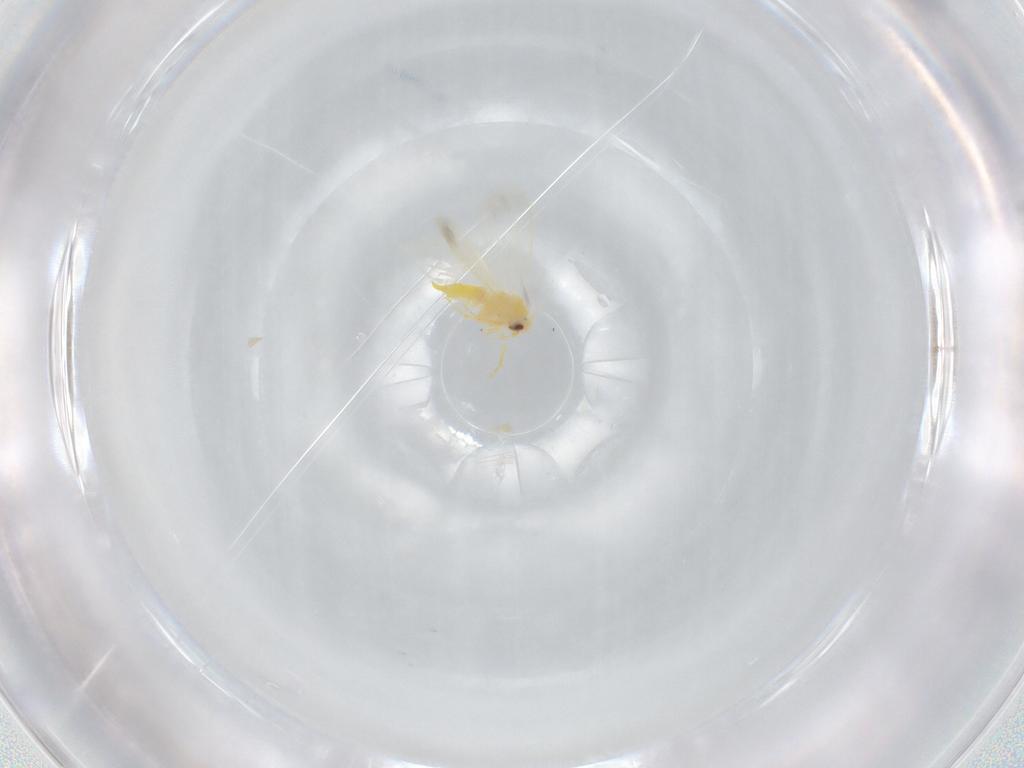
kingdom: Animalia
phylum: Arthropoda
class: Insecta
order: Hemiptera
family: Aleyrodidae
